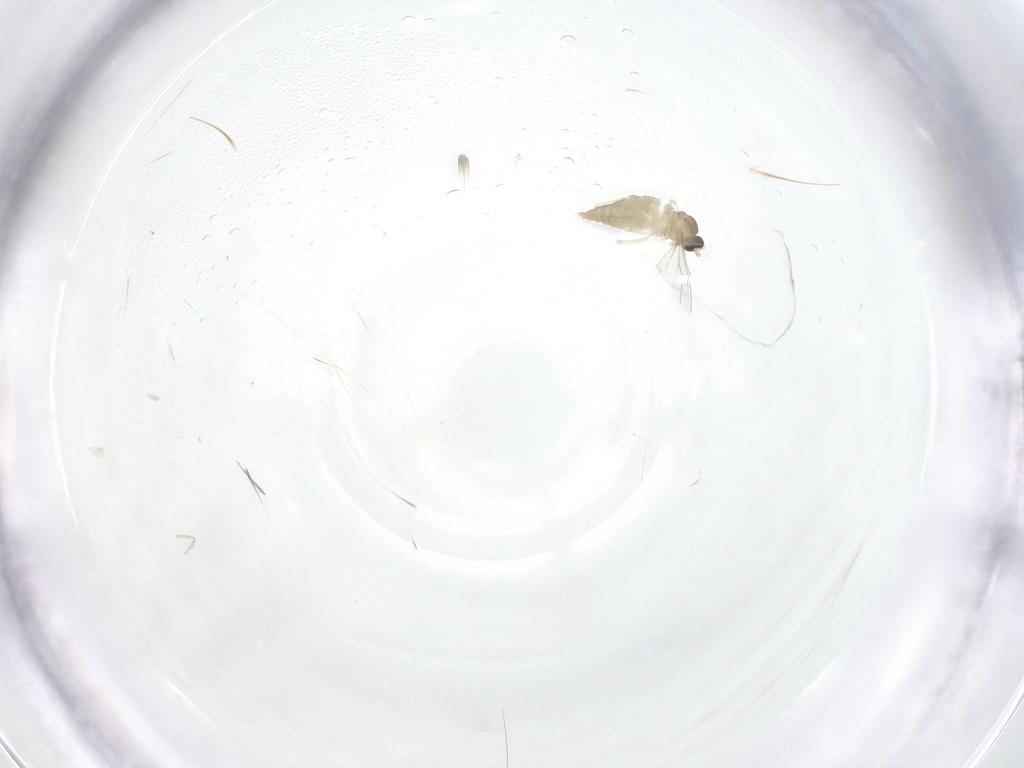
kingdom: Animalia
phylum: Arthropoda
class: Insecta
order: Diptera
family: Cecidomyiidae
